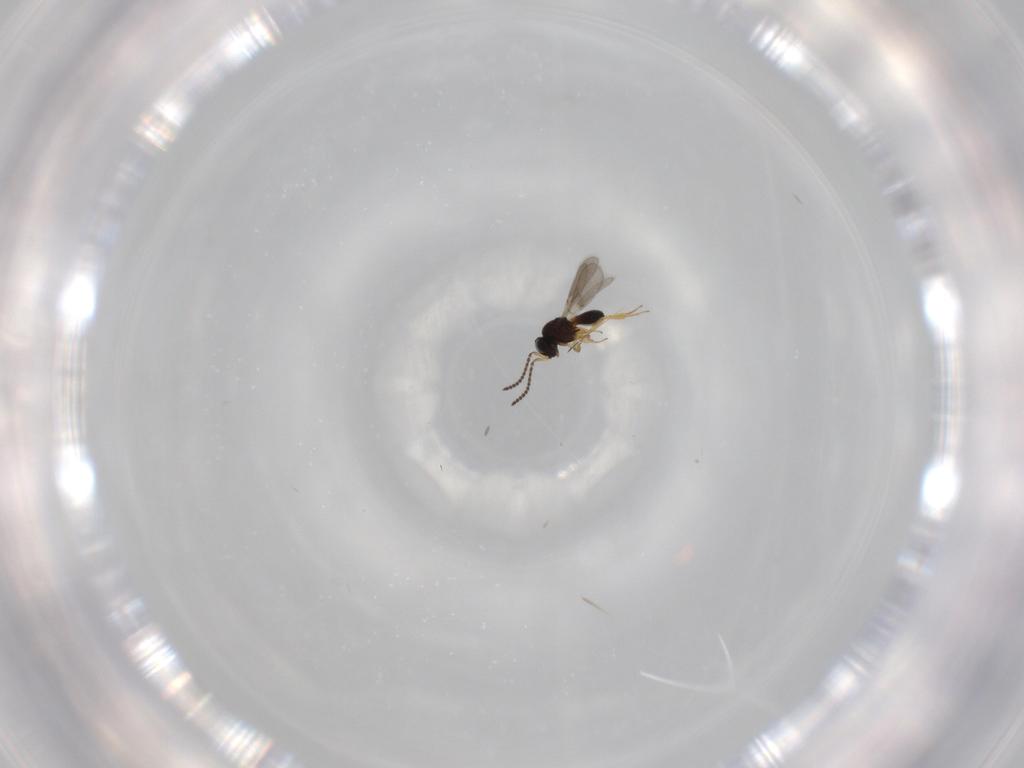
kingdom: Animalia
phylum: Arthropoda
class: Insecta
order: Hymenoptera
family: Scelionidae
